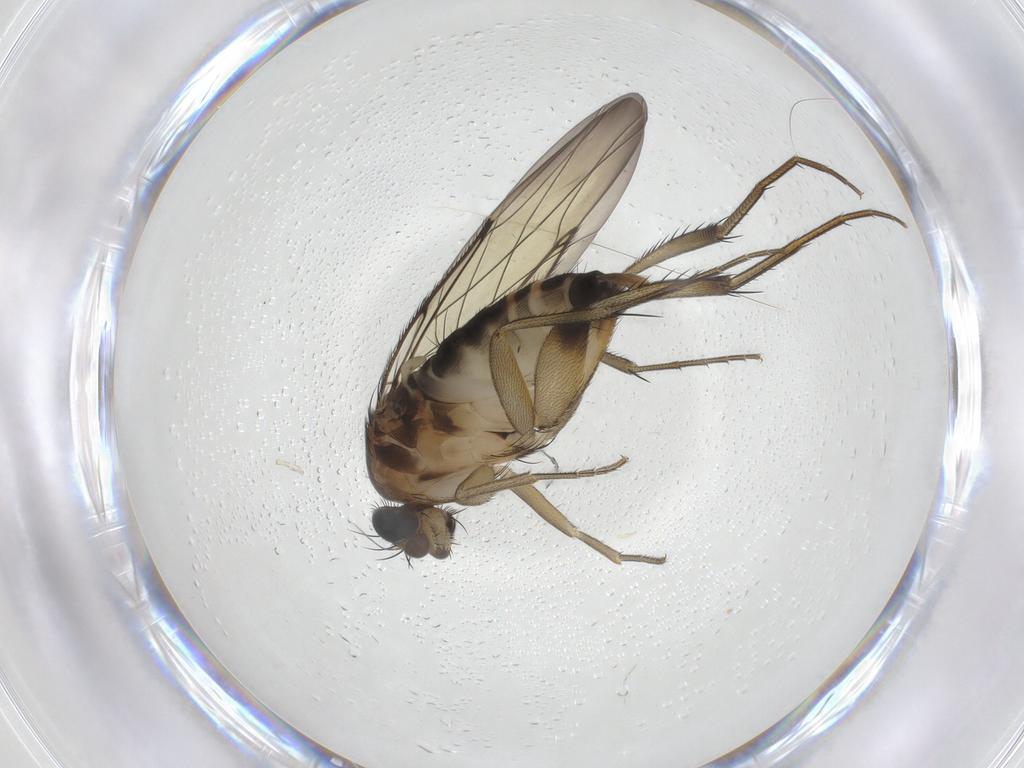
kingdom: Animalia
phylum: Arthropoda
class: Insecta
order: Diptera
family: Phoridae
